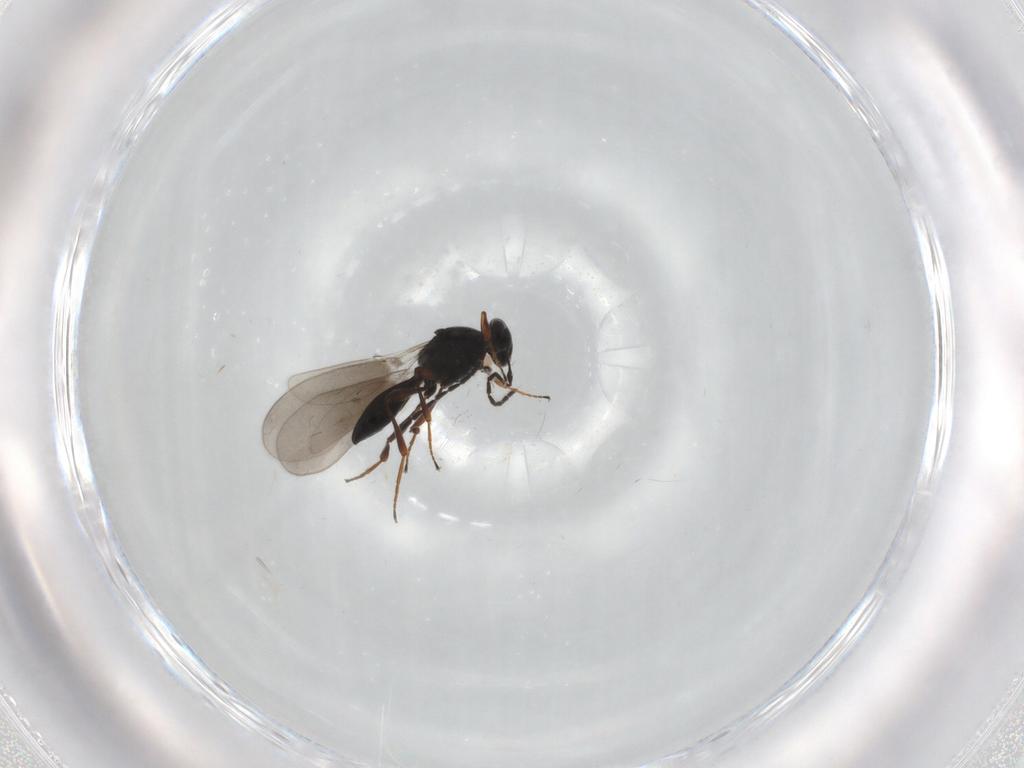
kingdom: Animalia
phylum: Arthropoda
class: Insecta
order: Hymenoptera
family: Platygastridae
